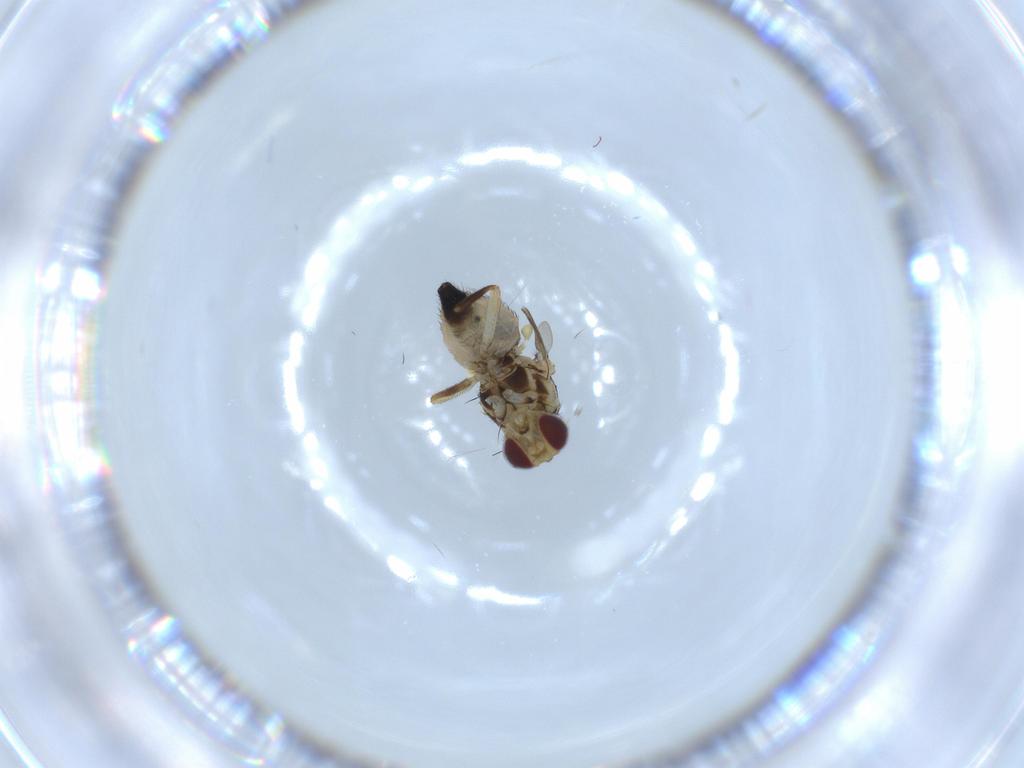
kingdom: Animalia
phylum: Arthropoda
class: Insecta
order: Diptera
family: Agromyzidae
